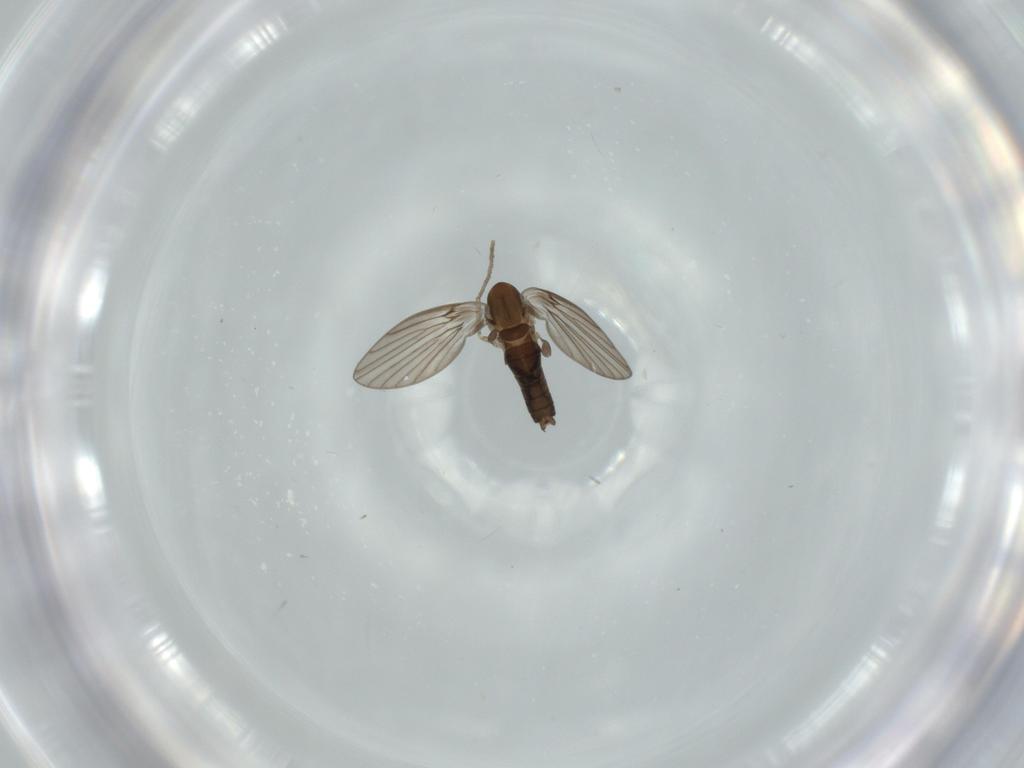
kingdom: Animalia
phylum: Arthropoda
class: Insecta
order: Diptera
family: Psychodidae
